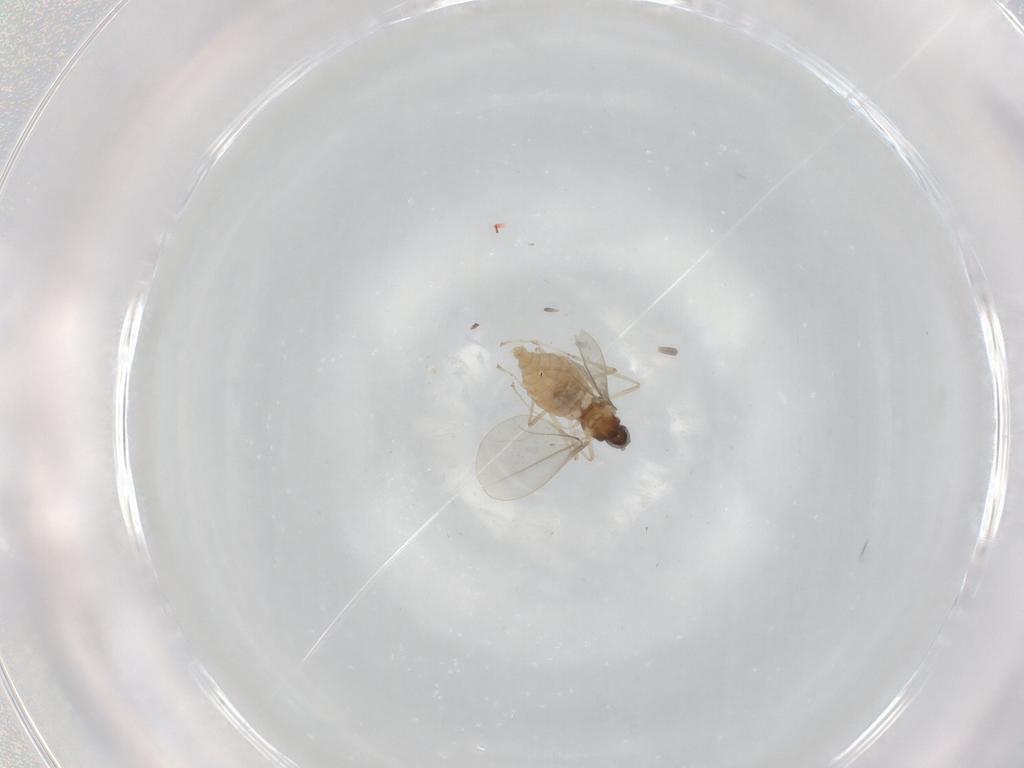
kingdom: Animalia
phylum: Arthropoda
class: Insecta
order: Diptera
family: Cecidomyiidae
